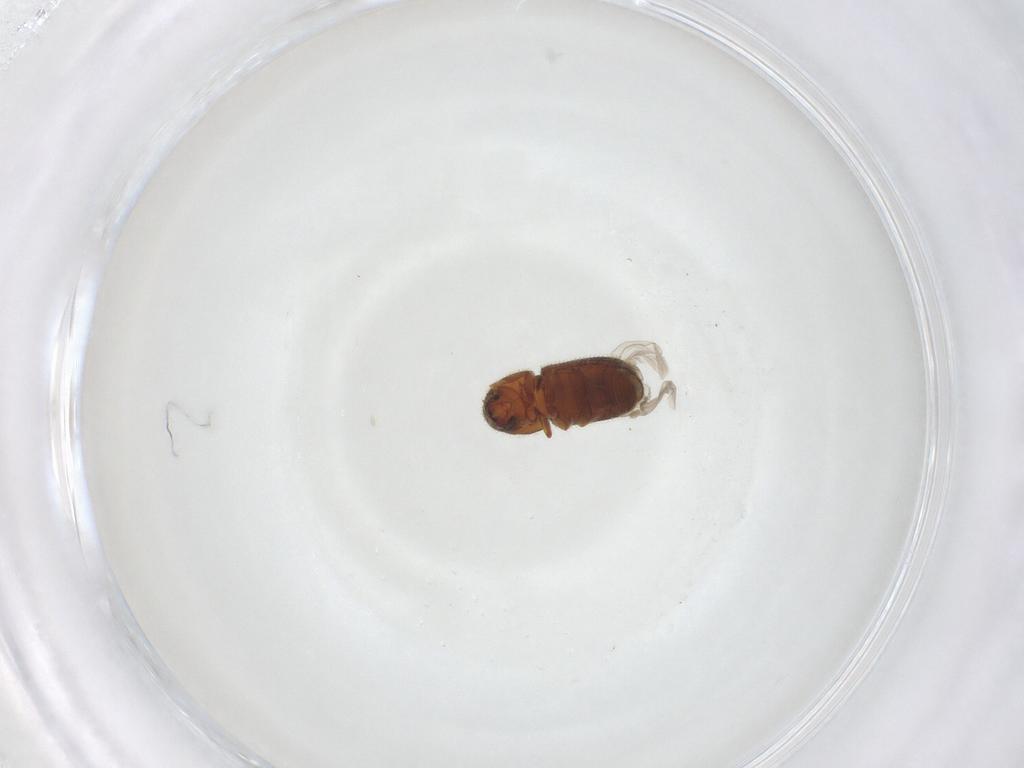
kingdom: Animalia
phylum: Arthropoda
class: Insecta
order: Coleoptera
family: Curculionidae
